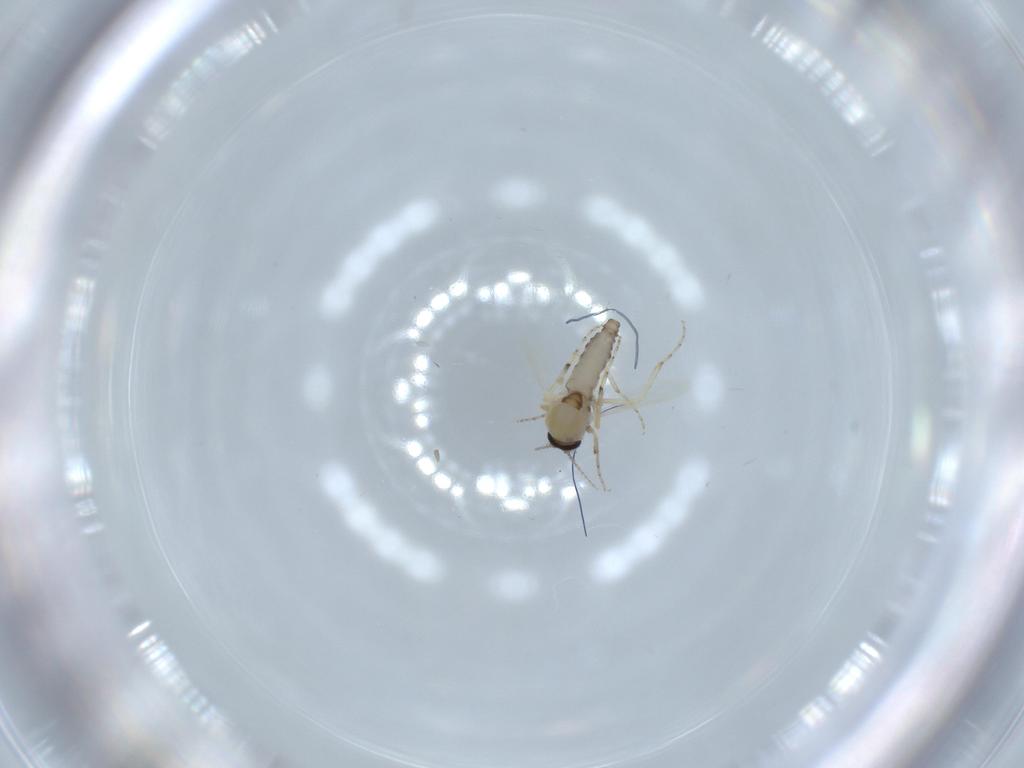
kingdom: Animalia
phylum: Arthropoda
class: Insecta
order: Diptera
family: Ceratopogonidae
